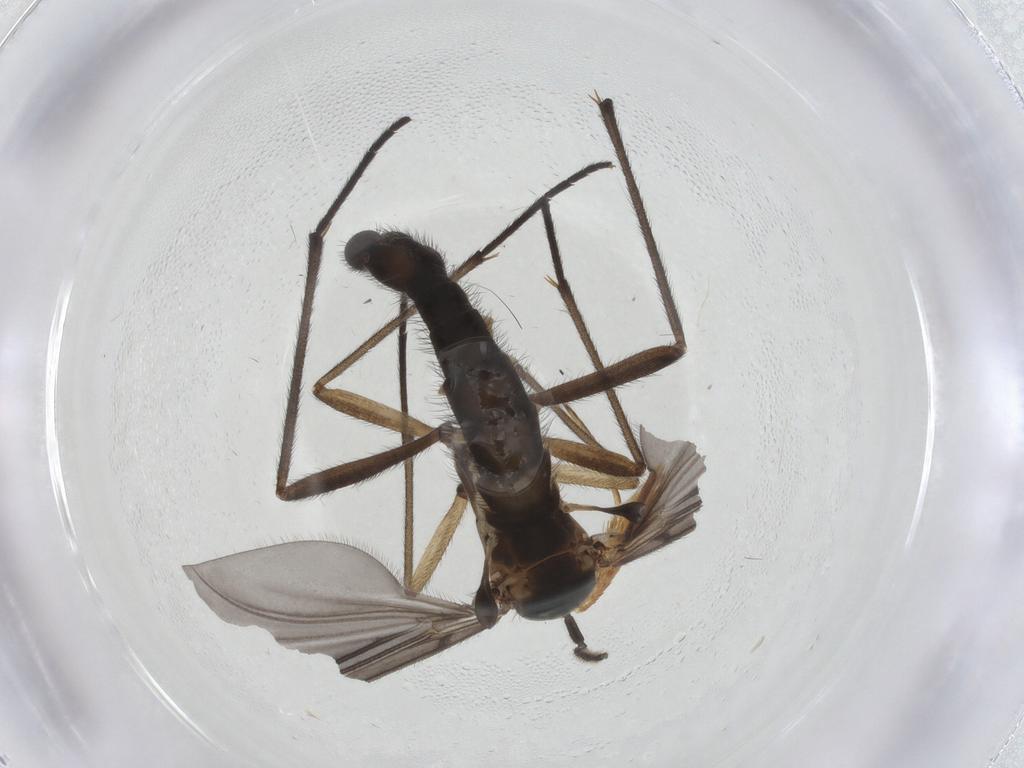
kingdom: Animalia
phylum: Arthropoda
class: Insecta
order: Diptera
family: Sciaridae
